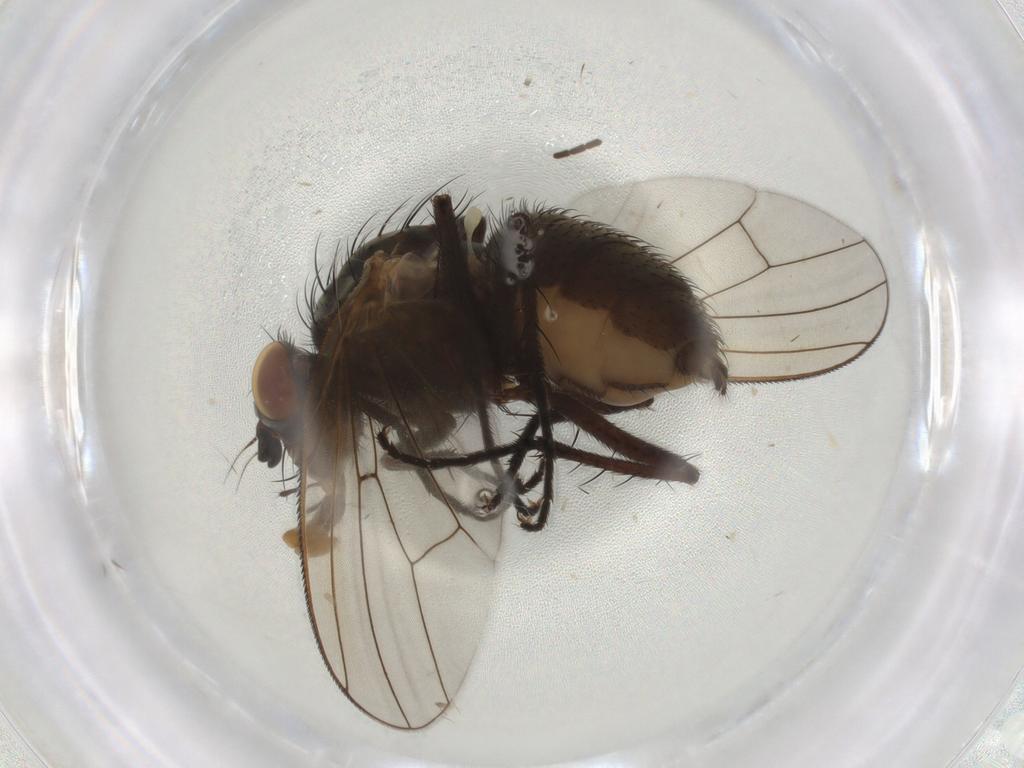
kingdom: Animalia
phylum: Arthropoda
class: Insecta
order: Diptera
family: Anthomyiidae
